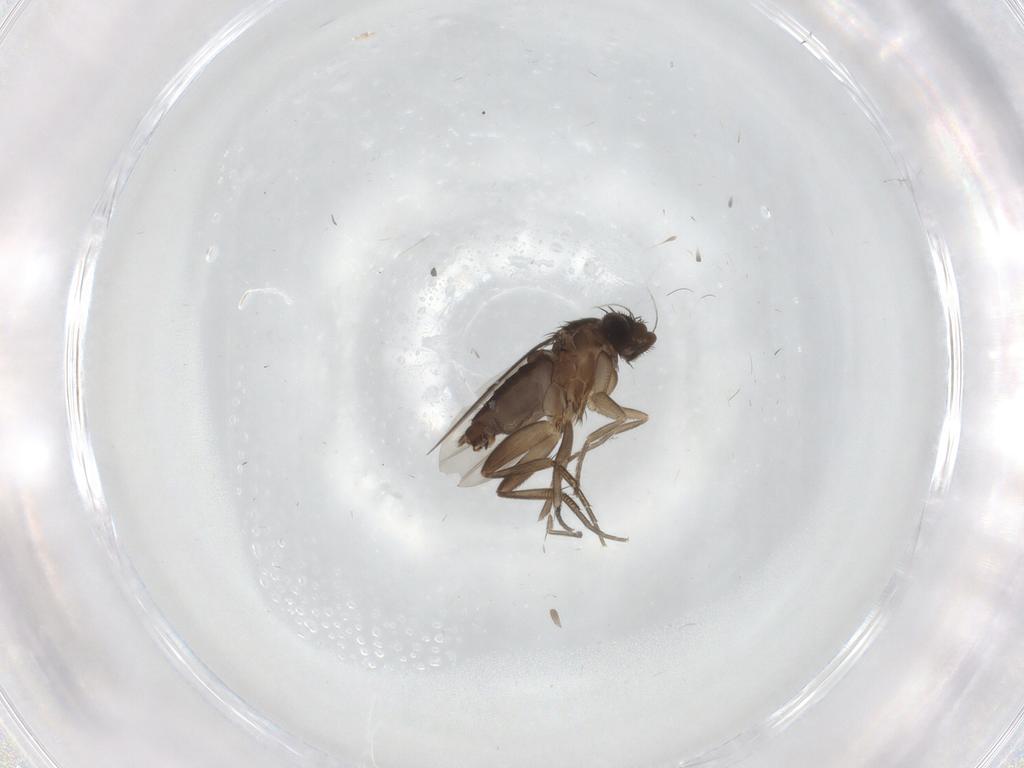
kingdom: Animalia
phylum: Arthropoda
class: Insecta
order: Diptera
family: Phoridae
